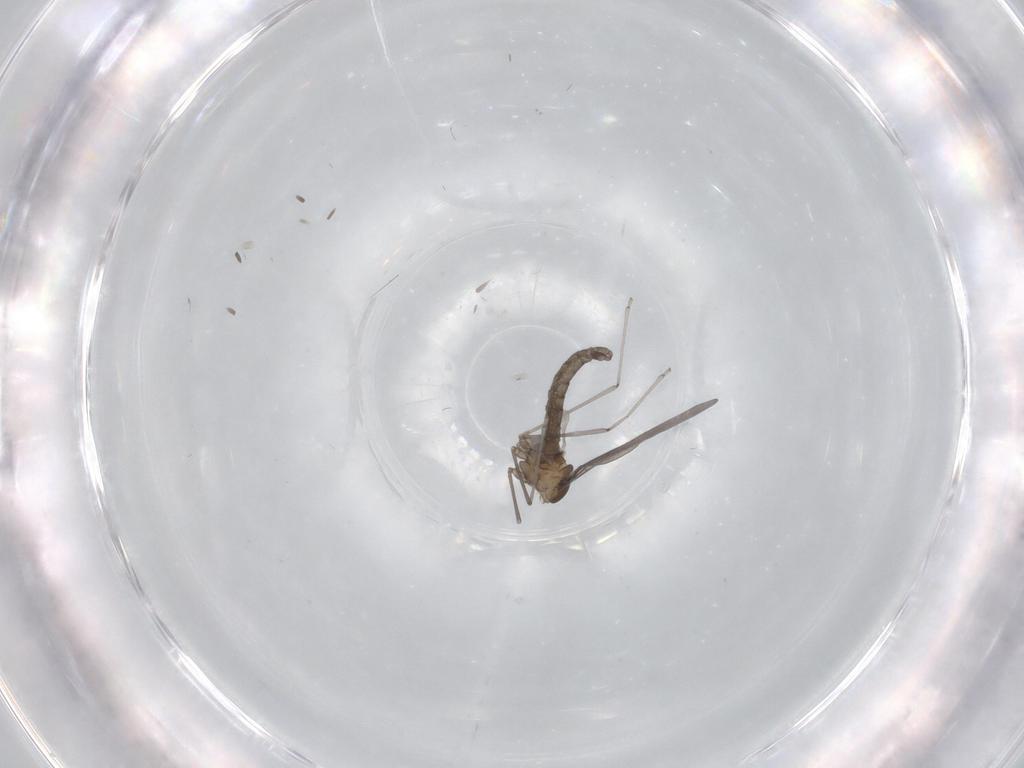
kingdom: Animalia
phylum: Arthropoda
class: Insecta
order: Diptera
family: Cecidomyiidae
